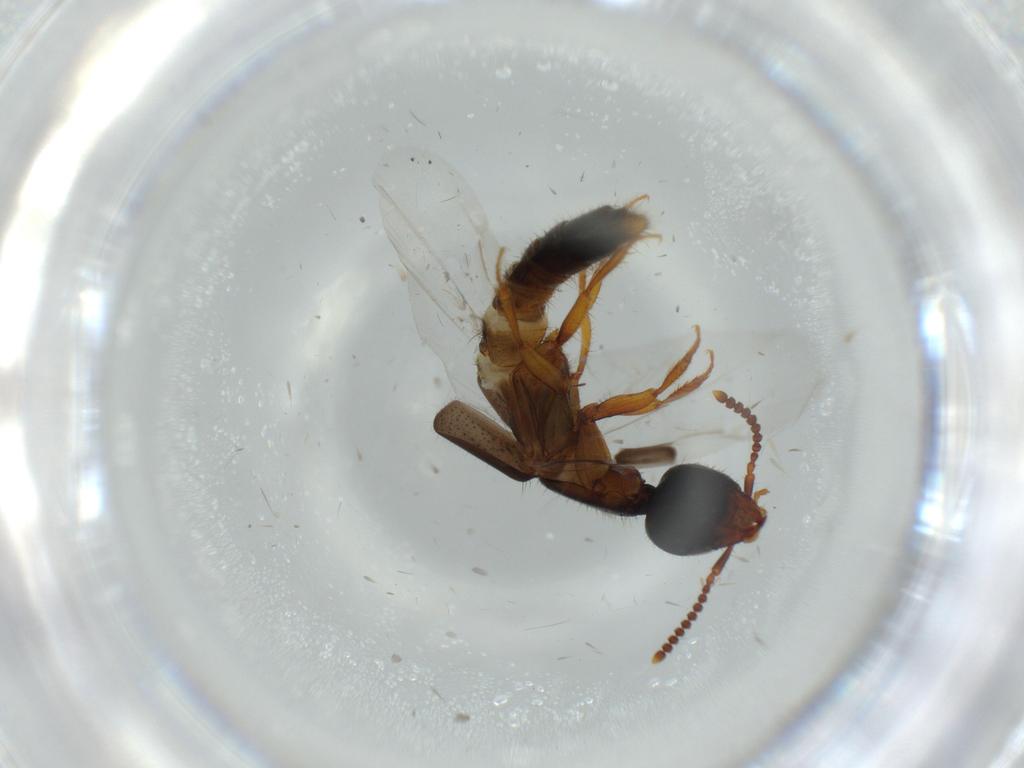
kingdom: Animalia
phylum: Arthropoda
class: Insecta
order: Coleoptera
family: Staphylinidae
